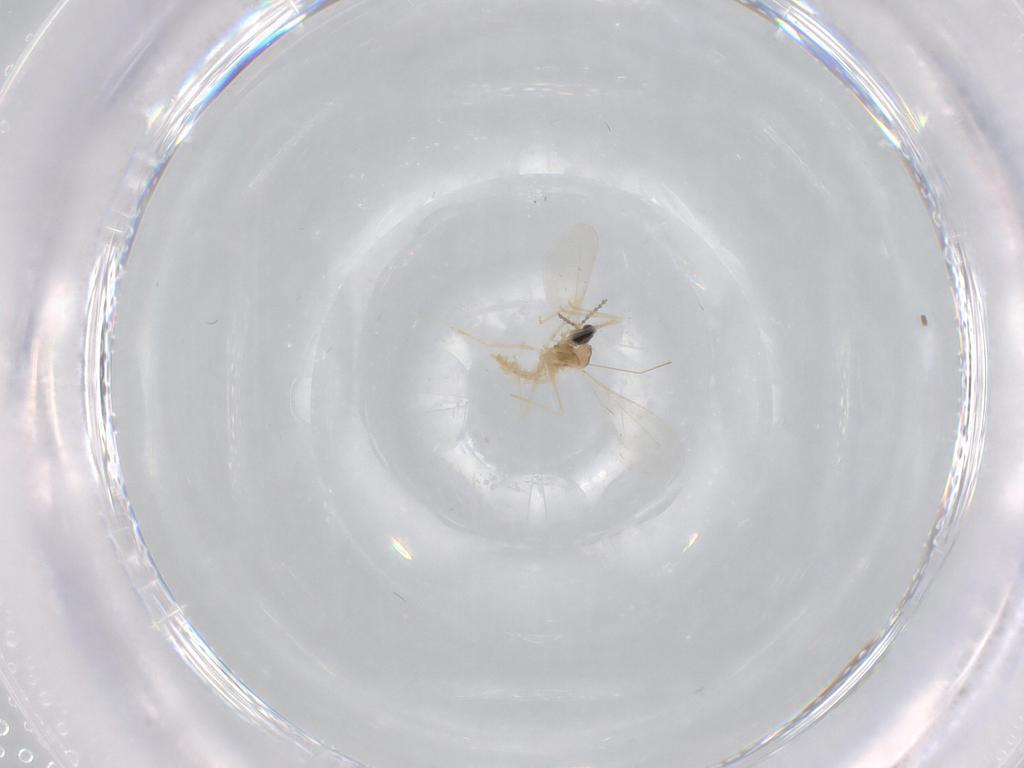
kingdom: Animalia
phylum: Arthropoda
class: Insecta
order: Diptera
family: Cecidomyiidae
